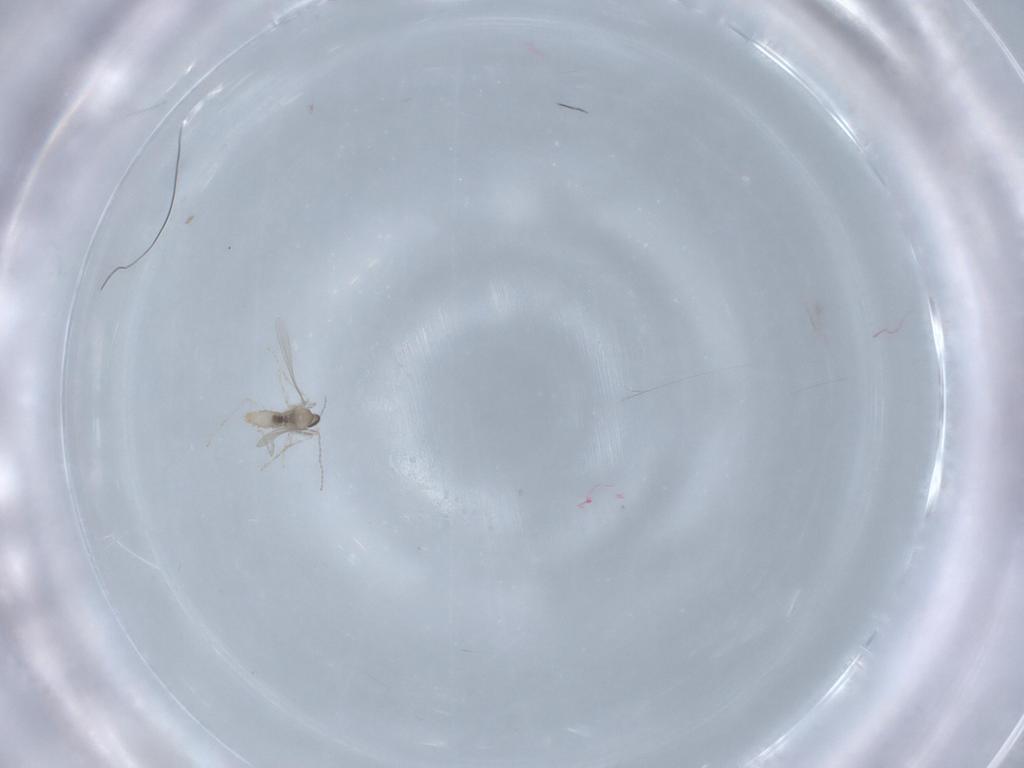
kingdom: Animalia
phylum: Arthropoda
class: Insecta
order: Diptera
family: Cecidomyiidae
